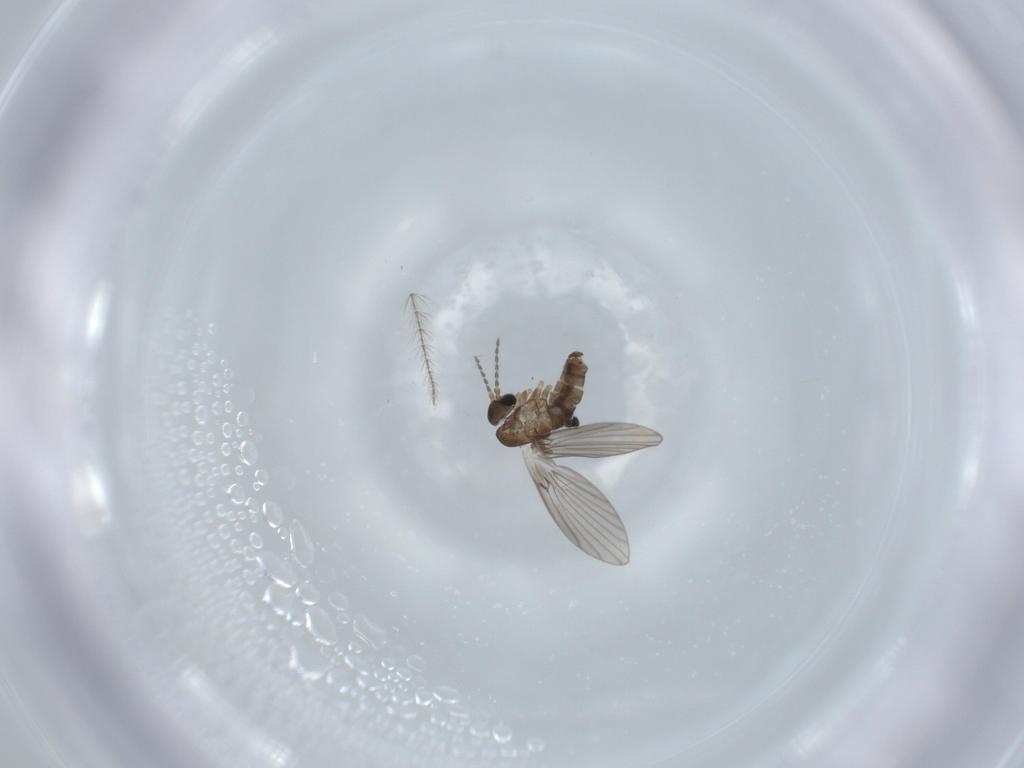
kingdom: Animalia
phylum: Arthropoda
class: Insecta
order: Diptera
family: Psychodidae
